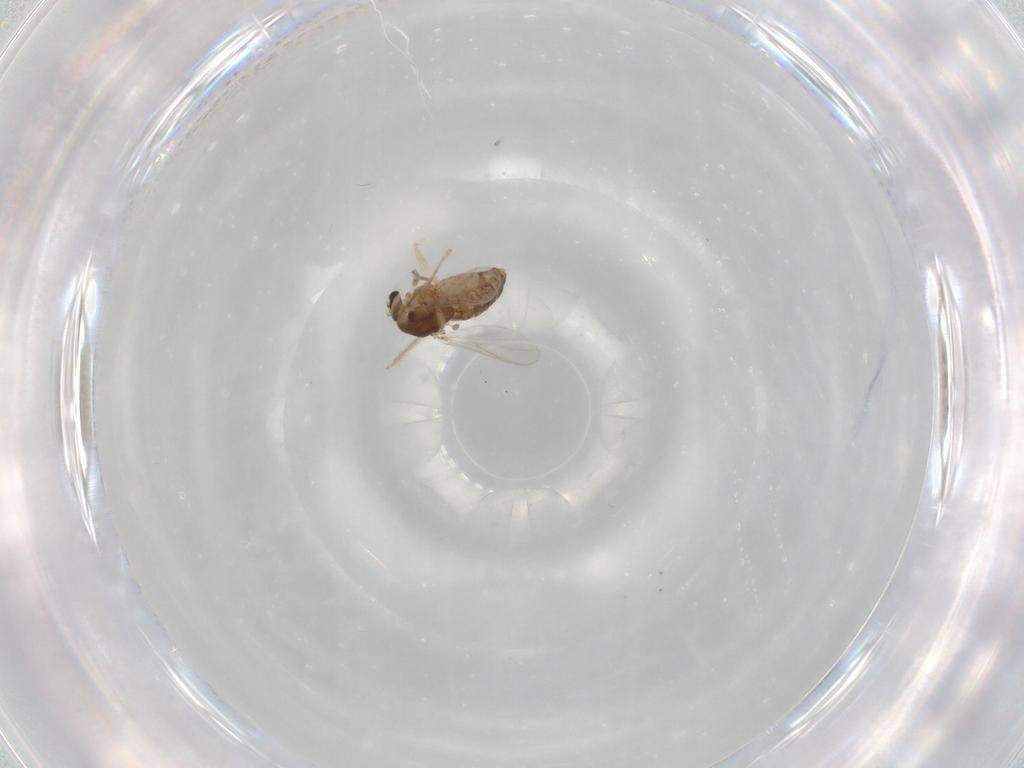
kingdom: Animalia
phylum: Arthropoda
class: Insecta
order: Diptera
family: Chironomidae
